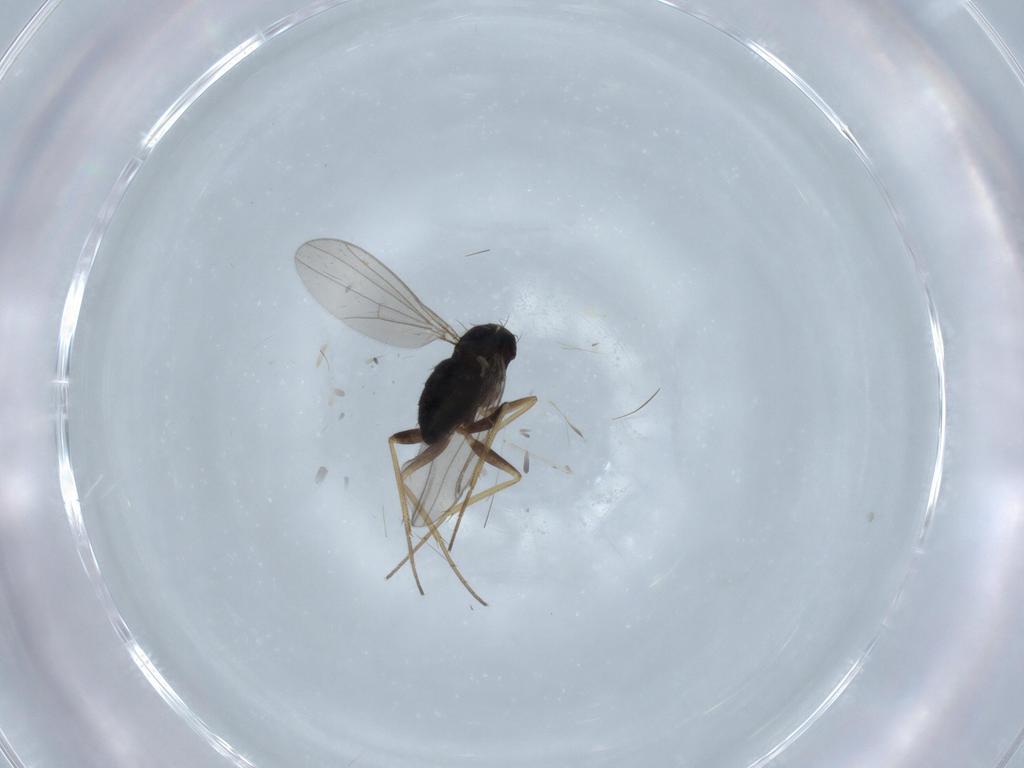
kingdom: Animalia
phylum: Arthropoda
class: Insecta
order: Diptera
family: Dolichopodidae
